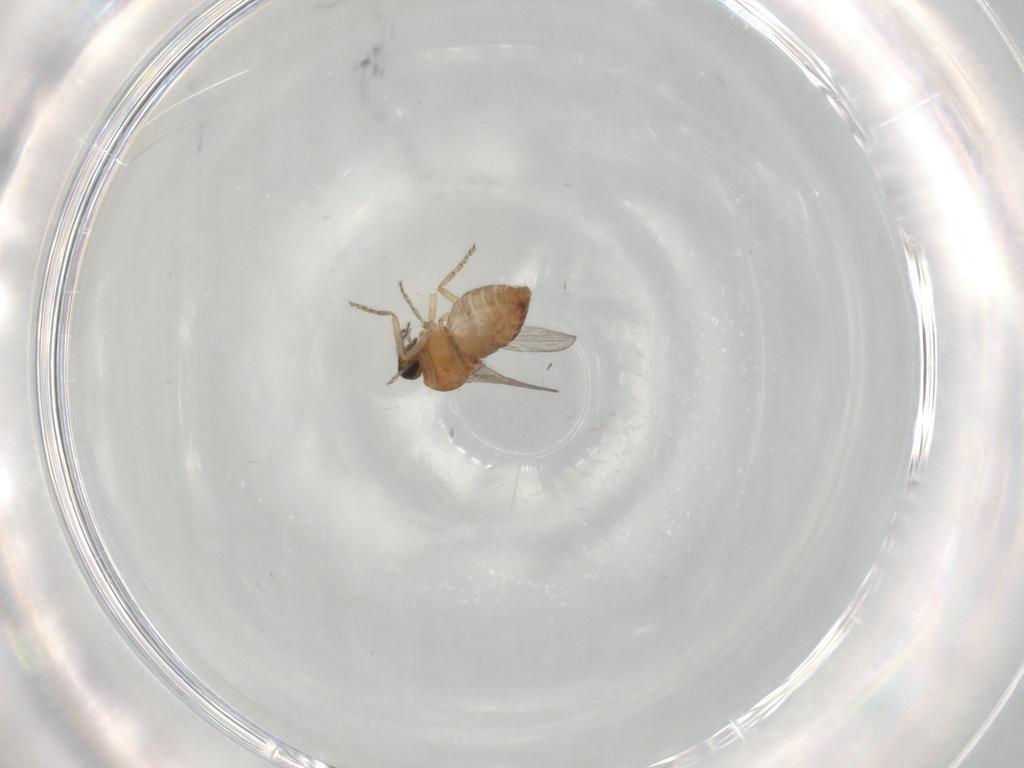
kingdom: Animalia
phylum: Arthropoda
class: Insecta
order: Diptera
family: Ceratopogonidae
